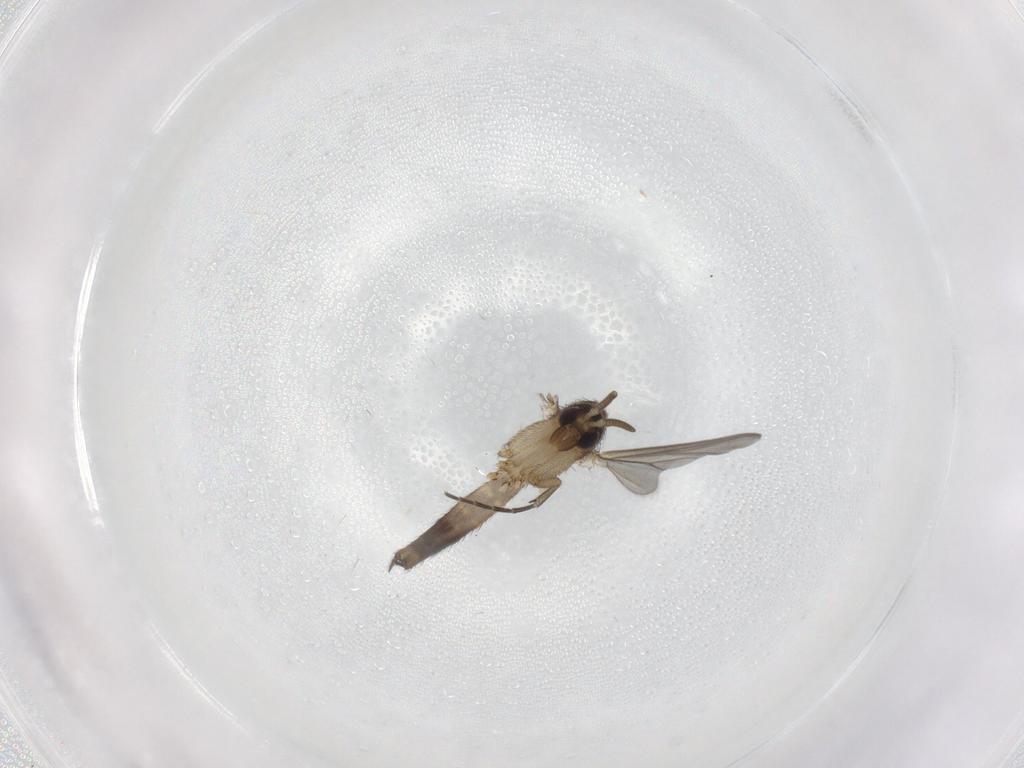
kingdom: Animalia
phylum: Arthropoda
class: Insecta
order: Diptera
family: Mycetophilidae
